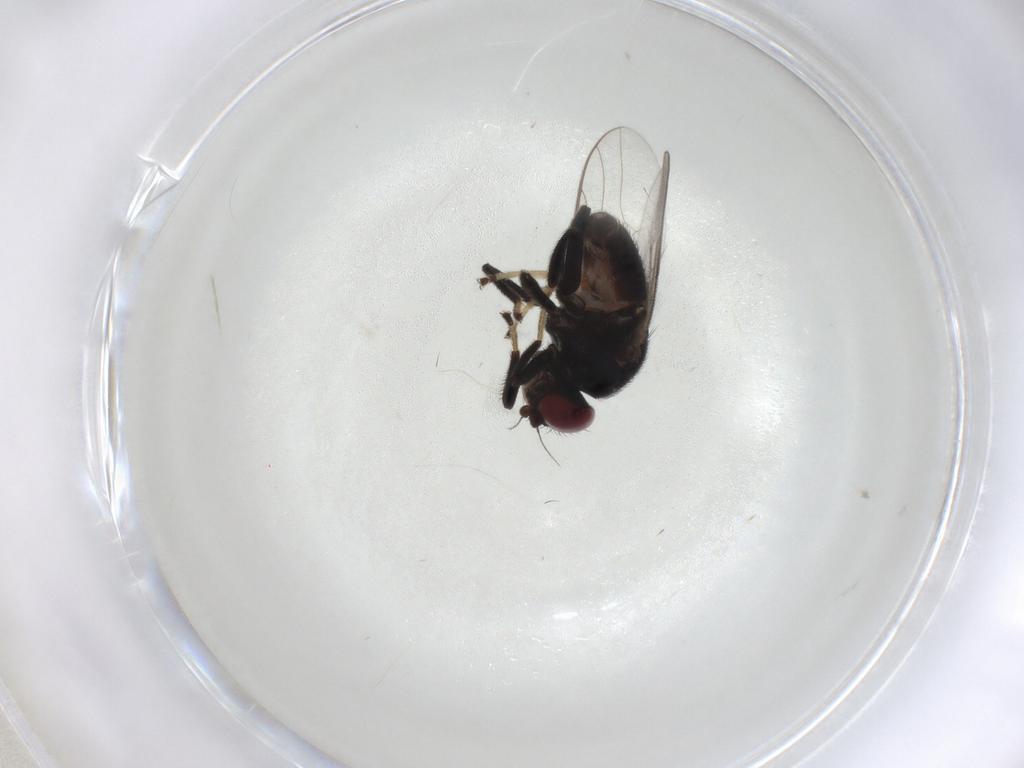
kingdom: Animalia
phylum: Arthropoda
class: Insecta
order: Diptera
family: Chloropidae
